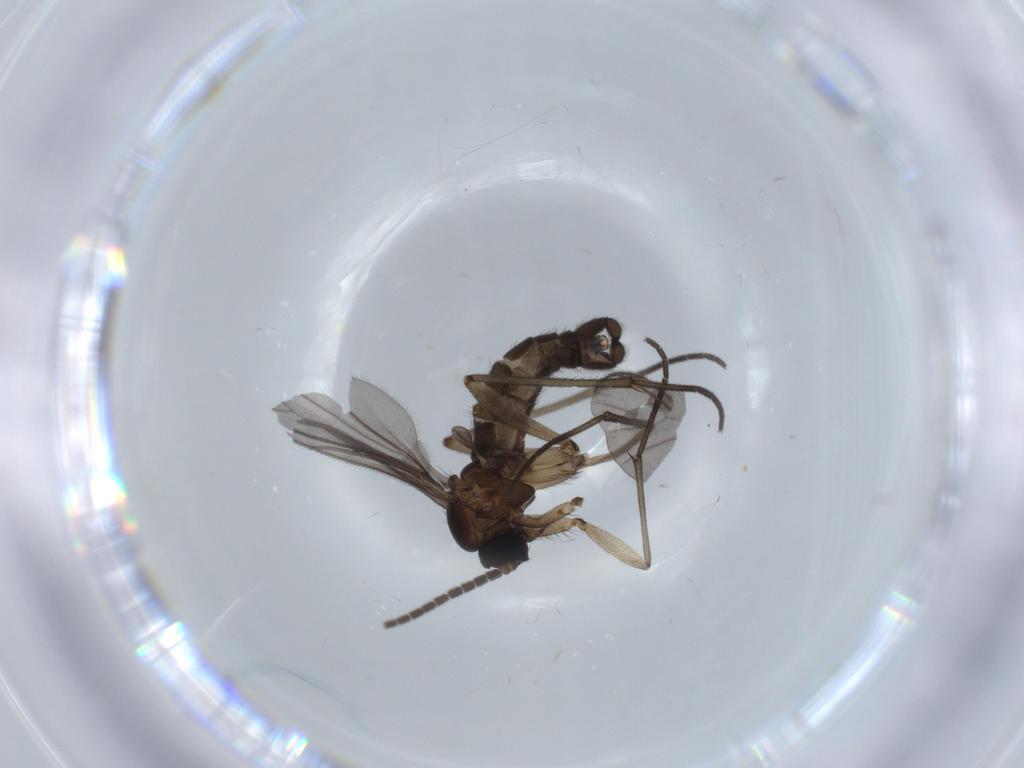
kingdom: Animalia
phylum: Arthropoda
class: Insecta
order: Diptera
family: Sciaridae
